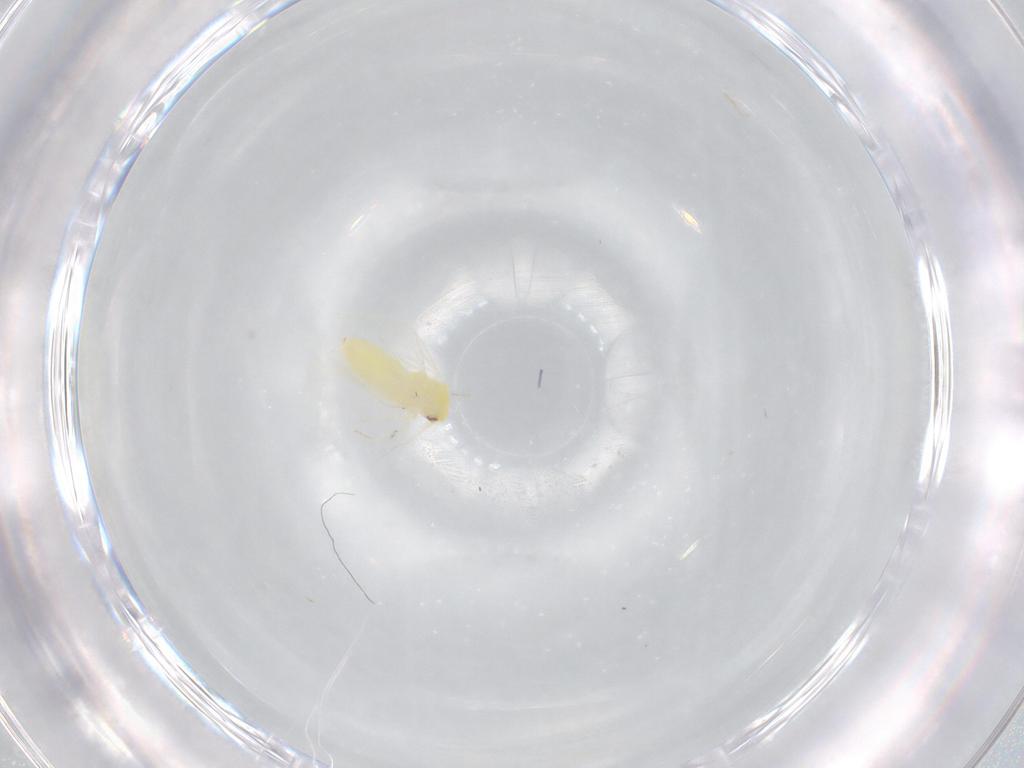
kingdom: Animalia
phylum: Arthropoda
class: Insecta
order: Hemiptera
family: Aleyrodidae
